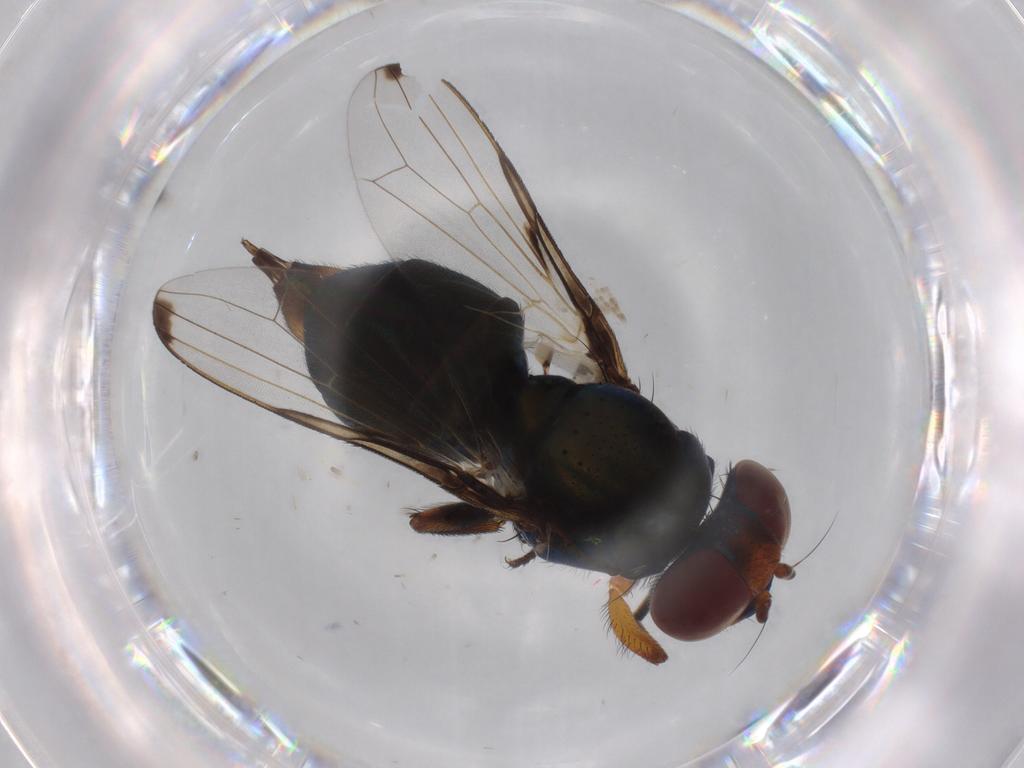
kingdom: Animalia
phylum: Arthropoda
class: Insecta
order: Diptera
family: Ulidiidae
